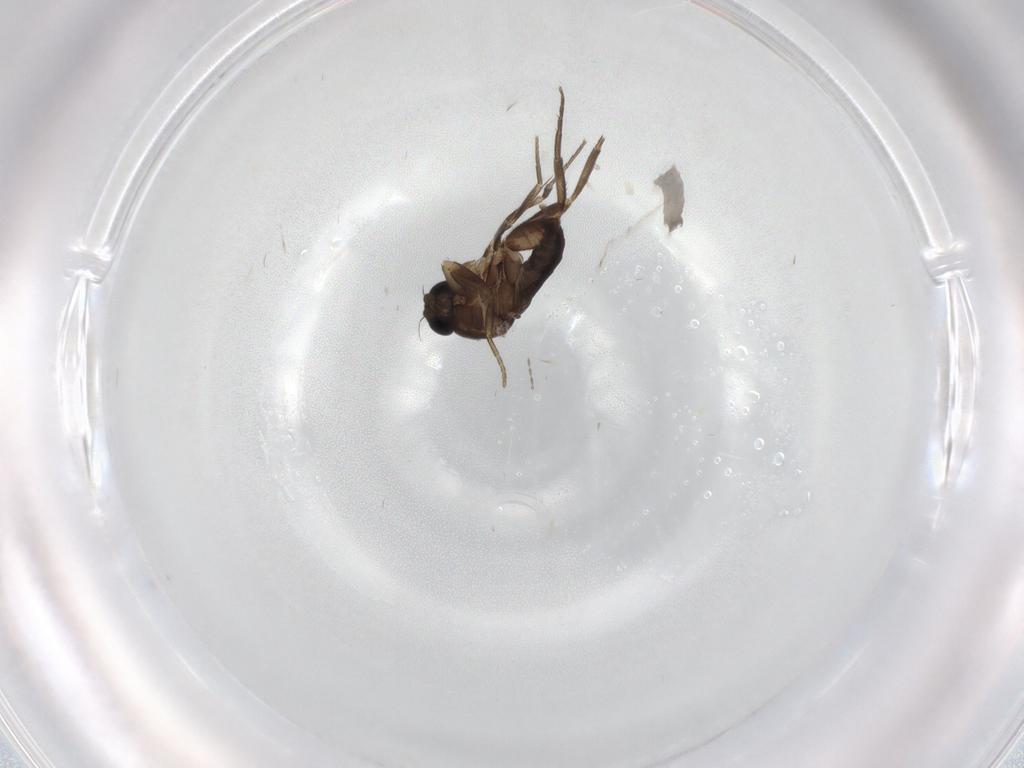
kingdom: Animalia
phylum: Arthropoda
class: Insecta
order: Diptera
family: Phoridae
